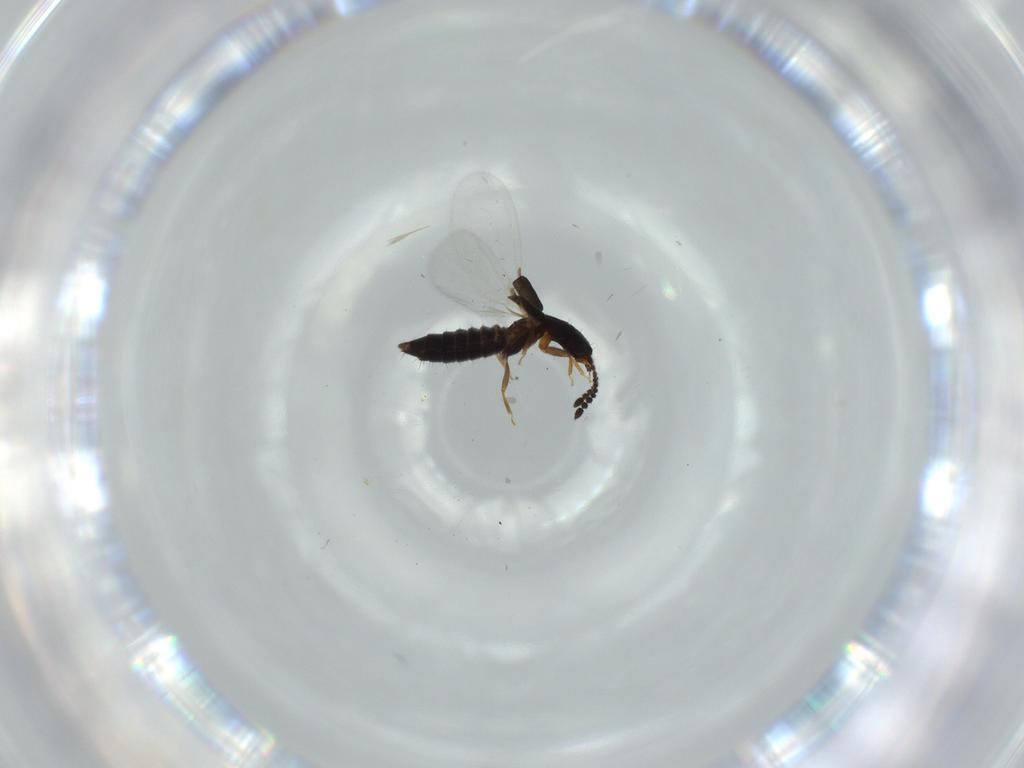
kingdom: Animalia
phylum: Arthropoda
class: Insecta
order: Coleoptera
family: Staphylinidae
